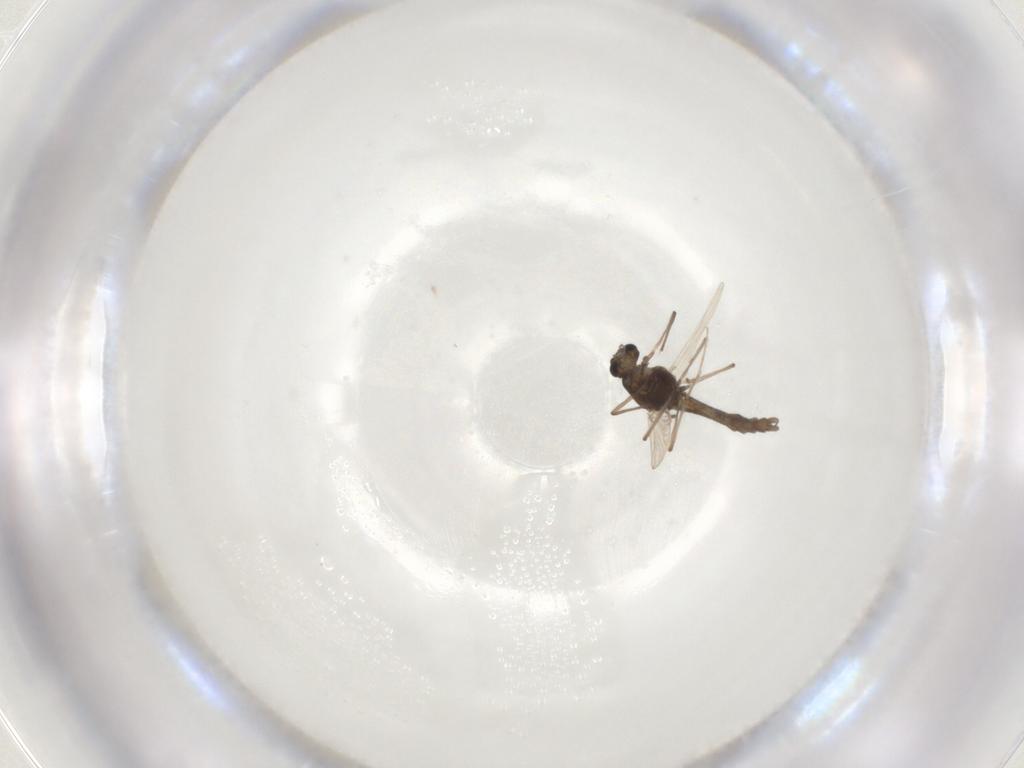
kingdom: Animalia
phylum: Arthropoda
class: Insecta
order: Diptera
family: Chironomidae
